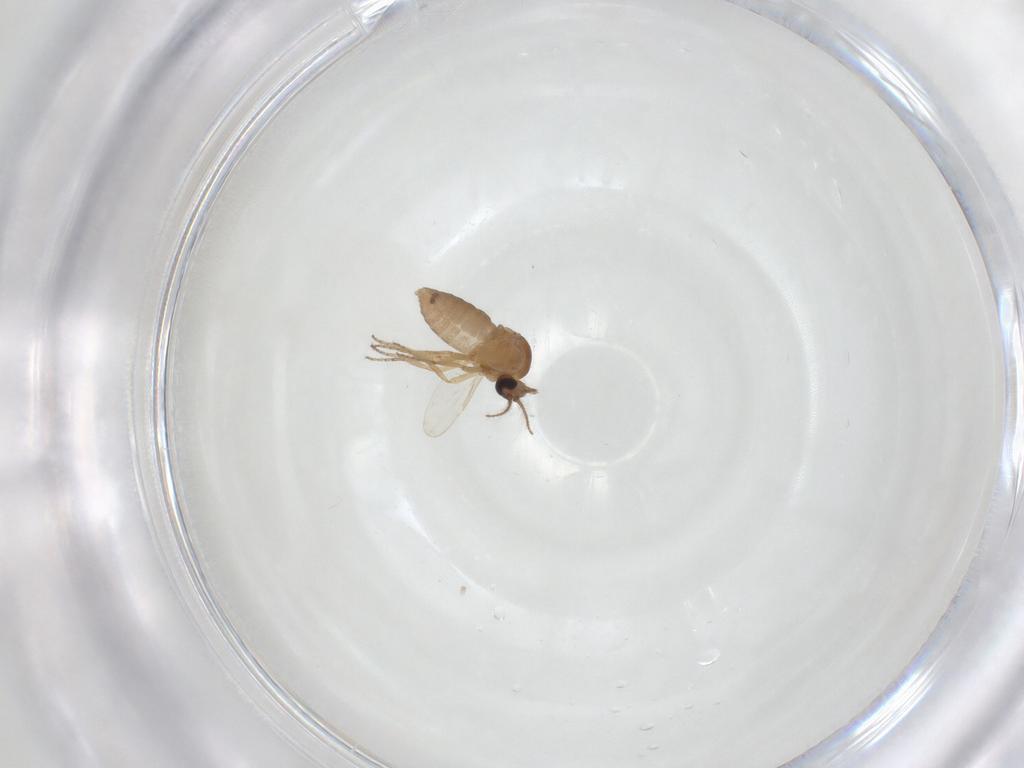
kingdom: Animalia
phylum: Arthropoda
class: Insecta
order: Diptera
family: Ceratopogonidae
